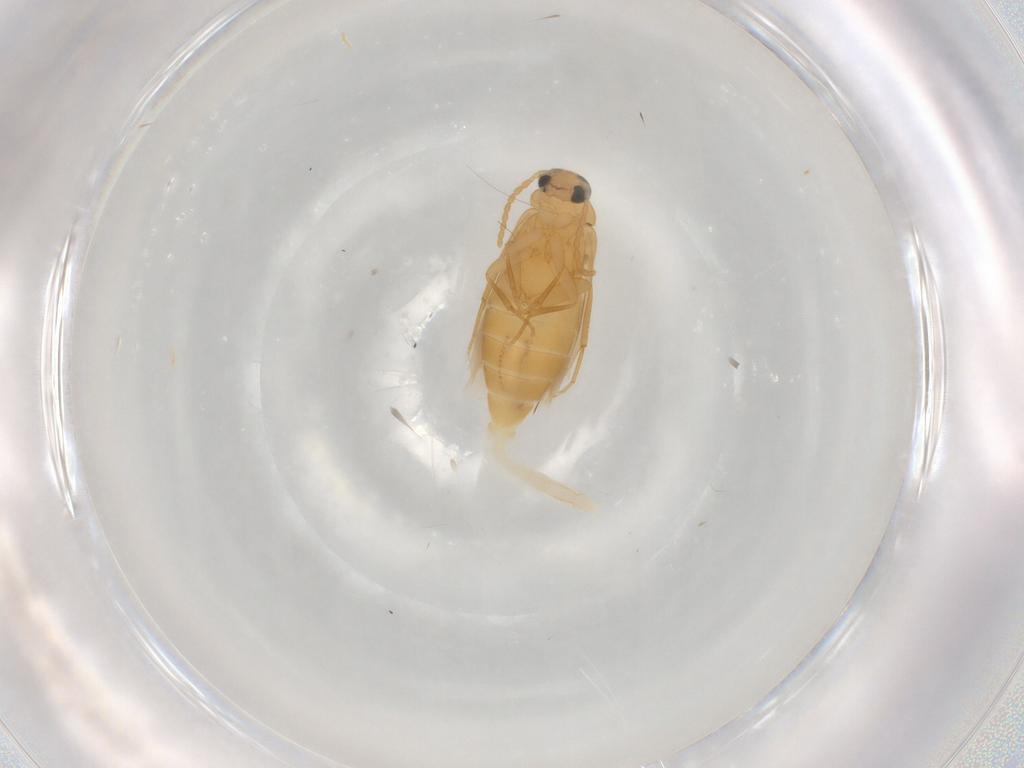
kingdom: Animalia
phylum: Arthropoda
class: Insecta
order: Coleoptera
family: Scraptiidae
